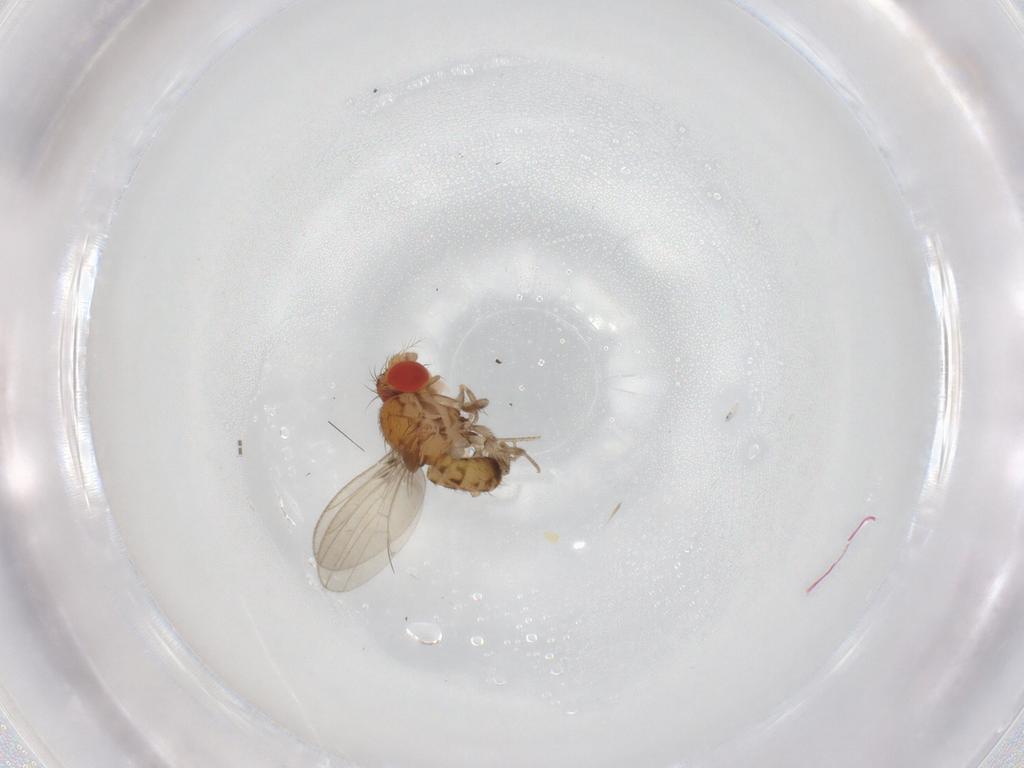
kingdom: Animalia
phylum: Arthropoda
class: Insecta
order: Diptera
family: Drosophilidae
